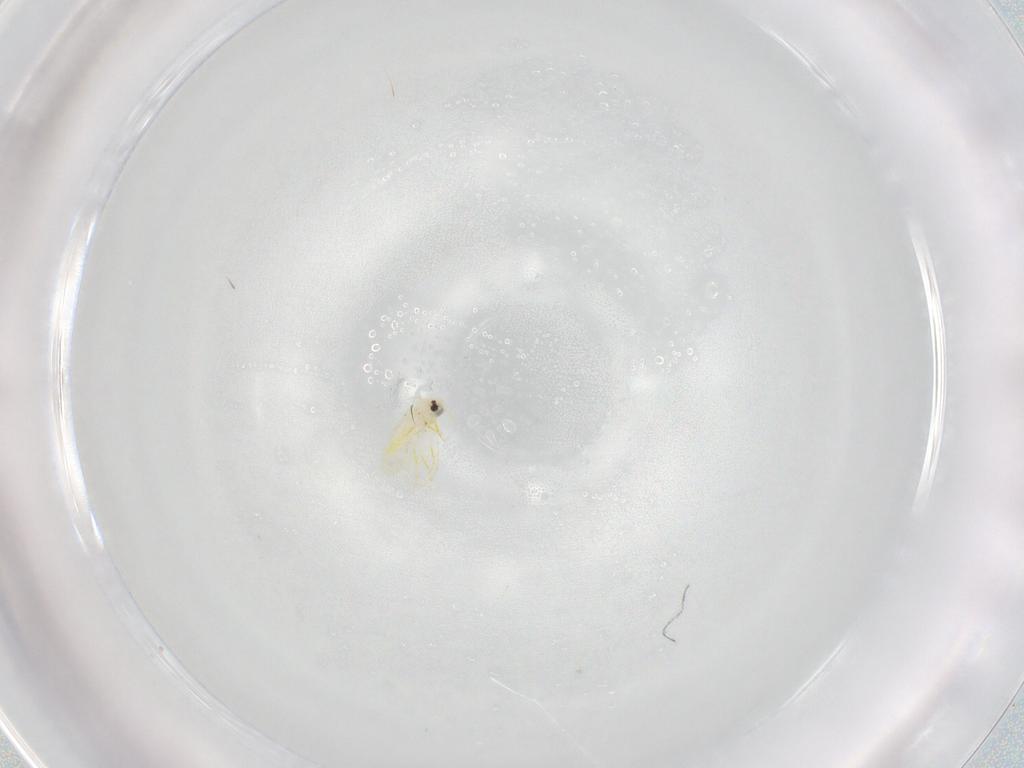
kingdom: Animalia
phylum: Arthropoda
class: Insecta
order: Hemiptera
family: Aleyrodidae
